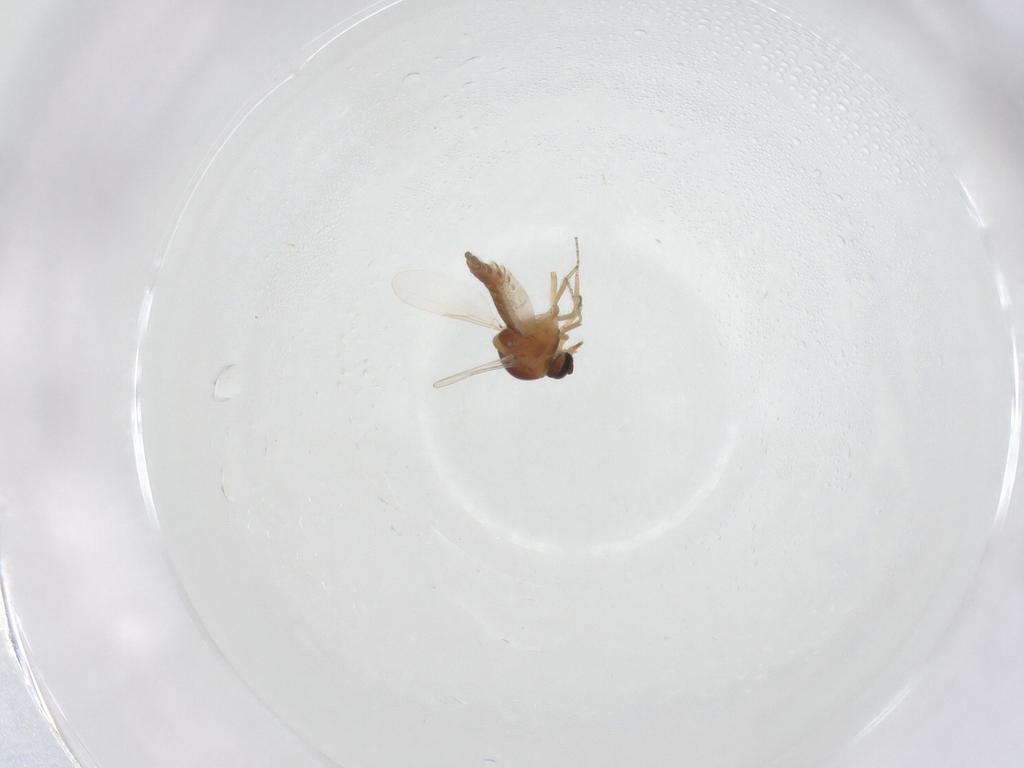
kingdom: Animalia
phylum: Arthropoda
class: Insecta
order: Diptera
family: Ceratopogonidae
